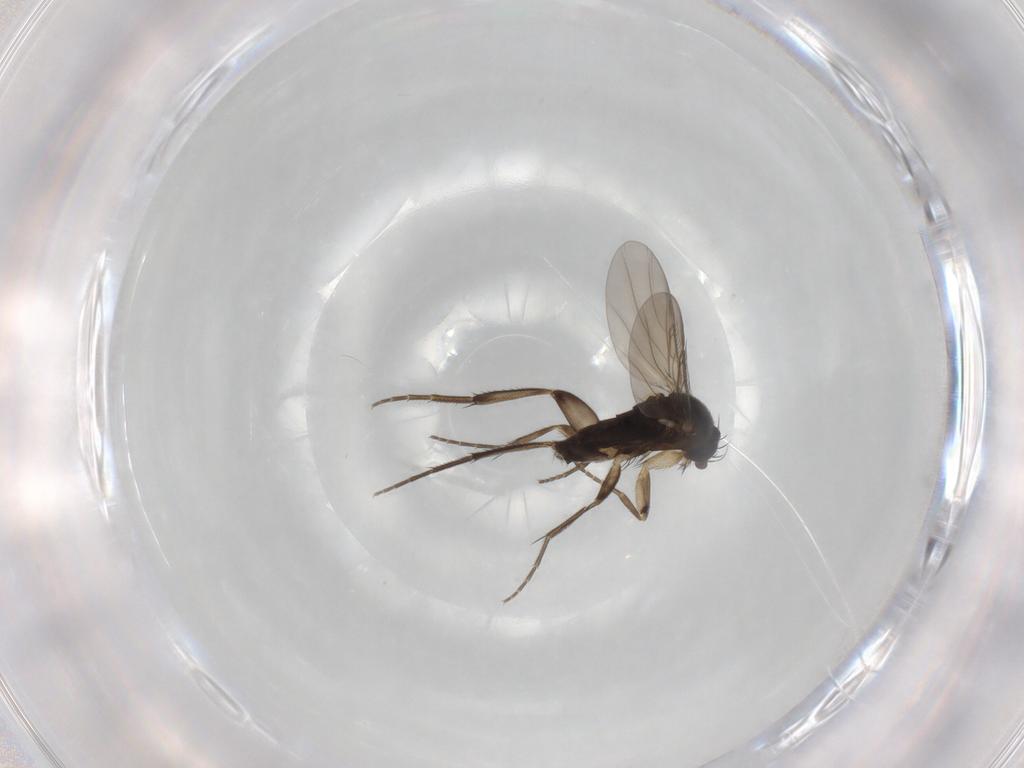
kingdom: Animalia
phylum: Arthropoda
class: Insecta
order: Diptera
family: Phoridae
